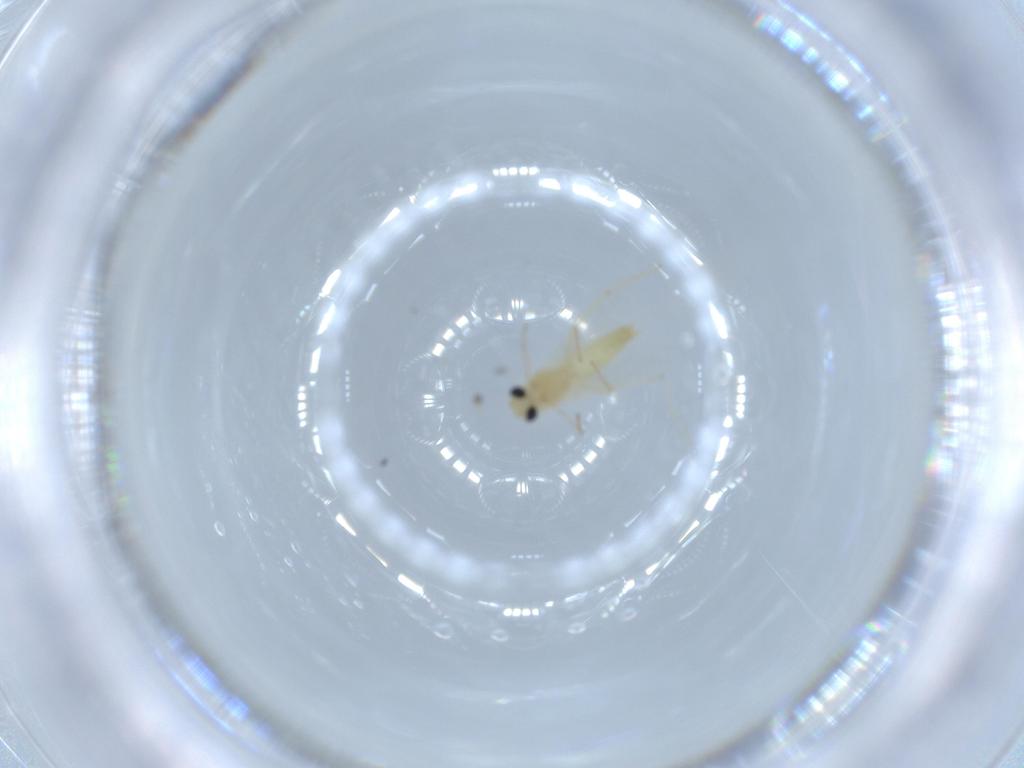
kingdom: Animalia
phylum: Arthropoda
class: Insecta
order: Diptera
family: Chironomidae
